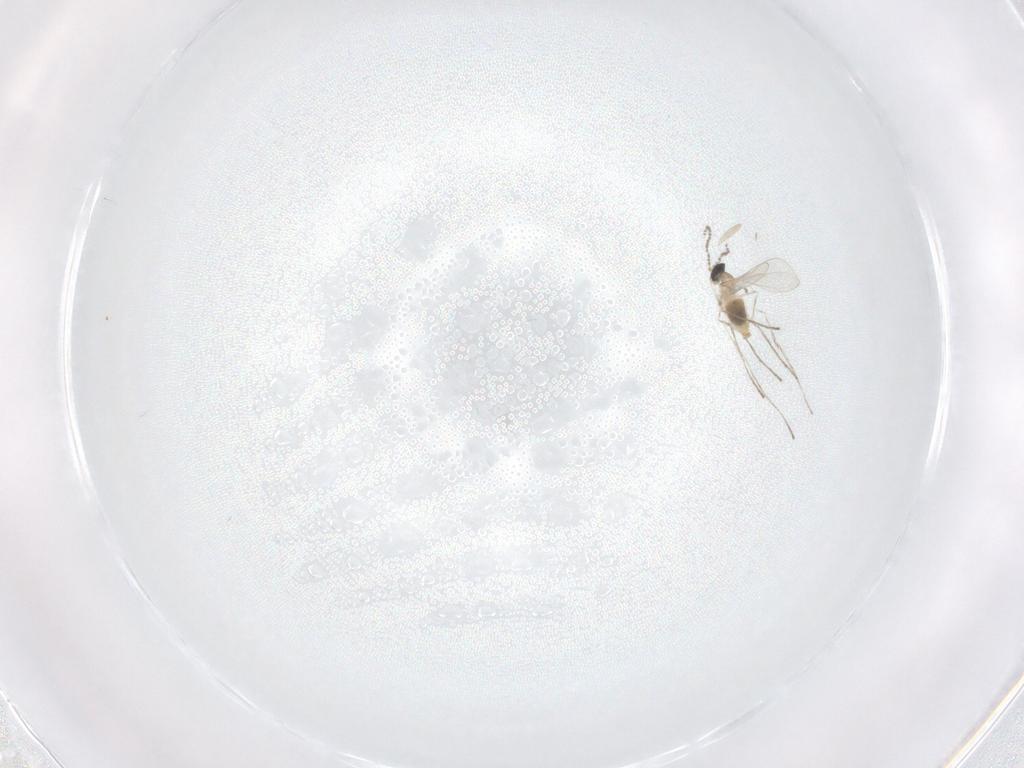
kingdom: Animalia
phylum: Arthropoda
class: Insecta
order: Diptera
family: Cecidomyiidae
